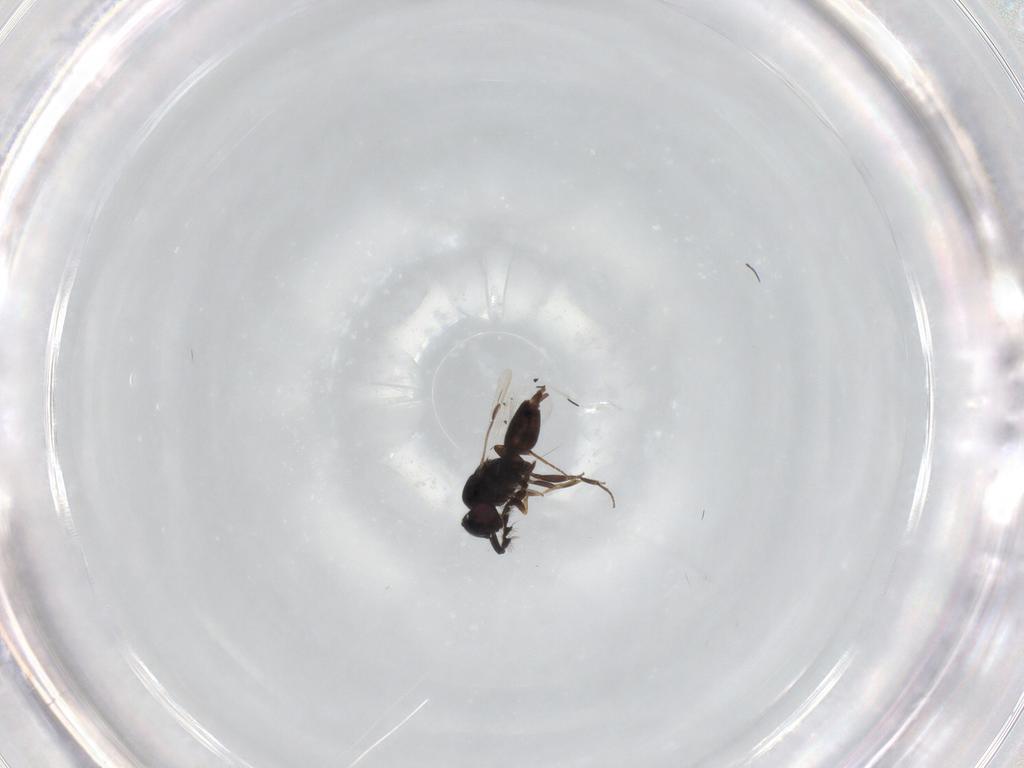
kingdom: Animalia
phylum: Arthropoda
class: Insecta
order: Hymenoptera
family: Megaspilidae
